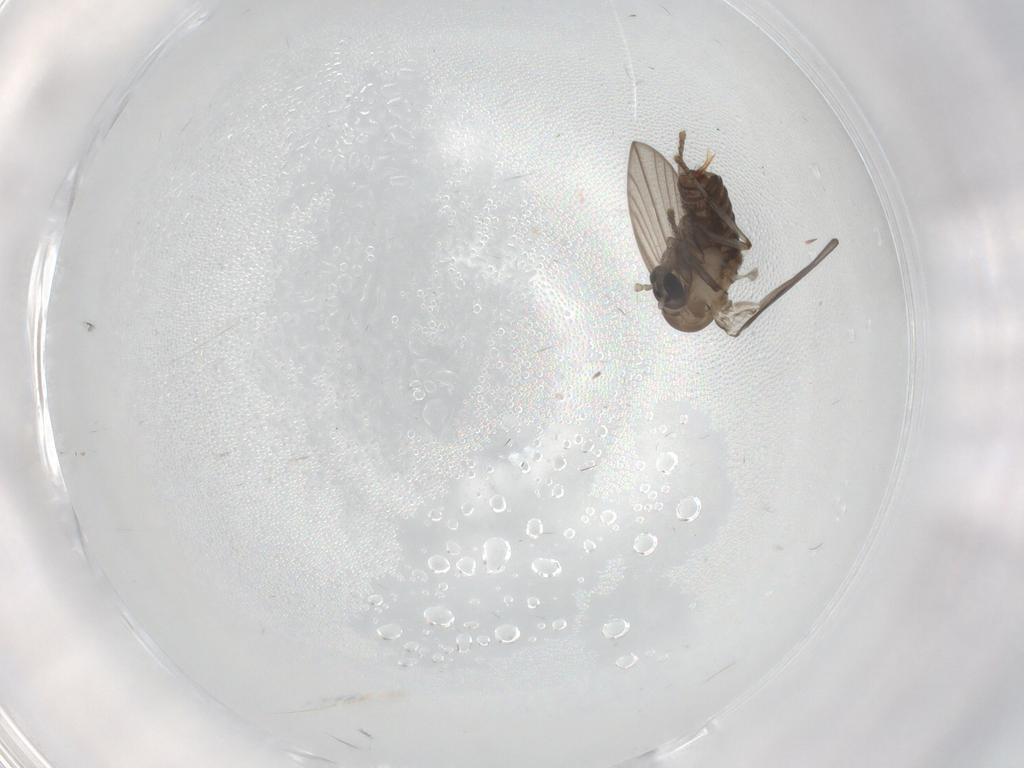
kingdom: Animalia
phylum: Arthropoda
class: Insecta
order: Diptera
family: Psychodidae
